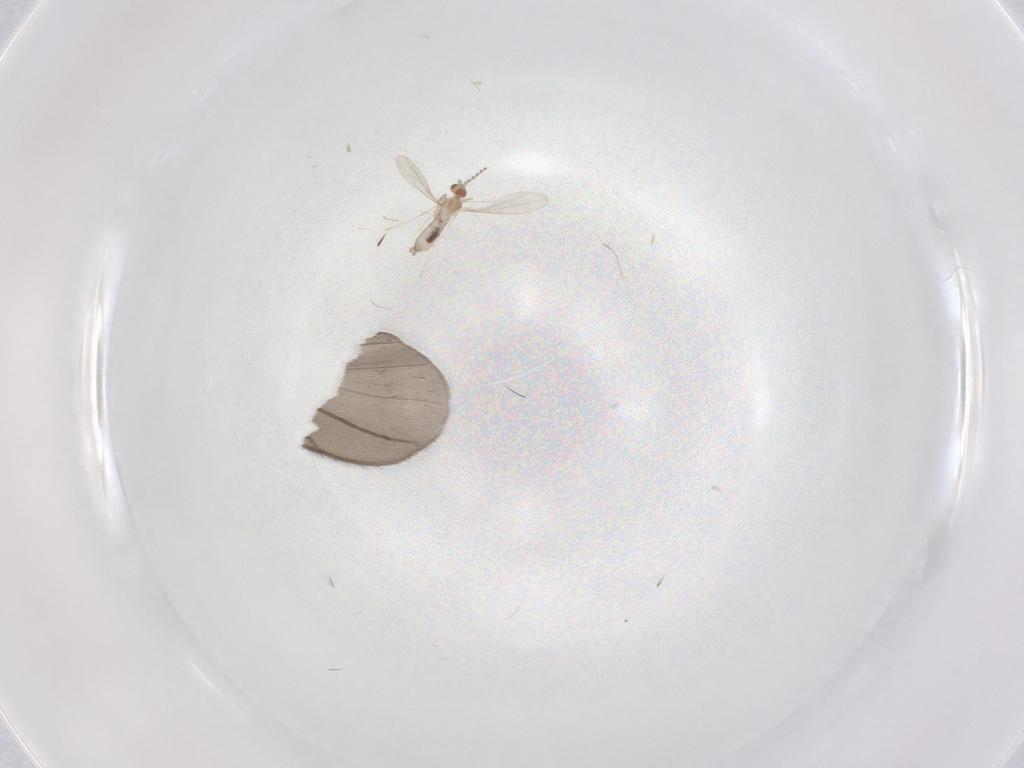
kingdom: Animalia
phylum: Arthropoda
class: Insecta
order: Diptera
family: Cecidomyiidae
